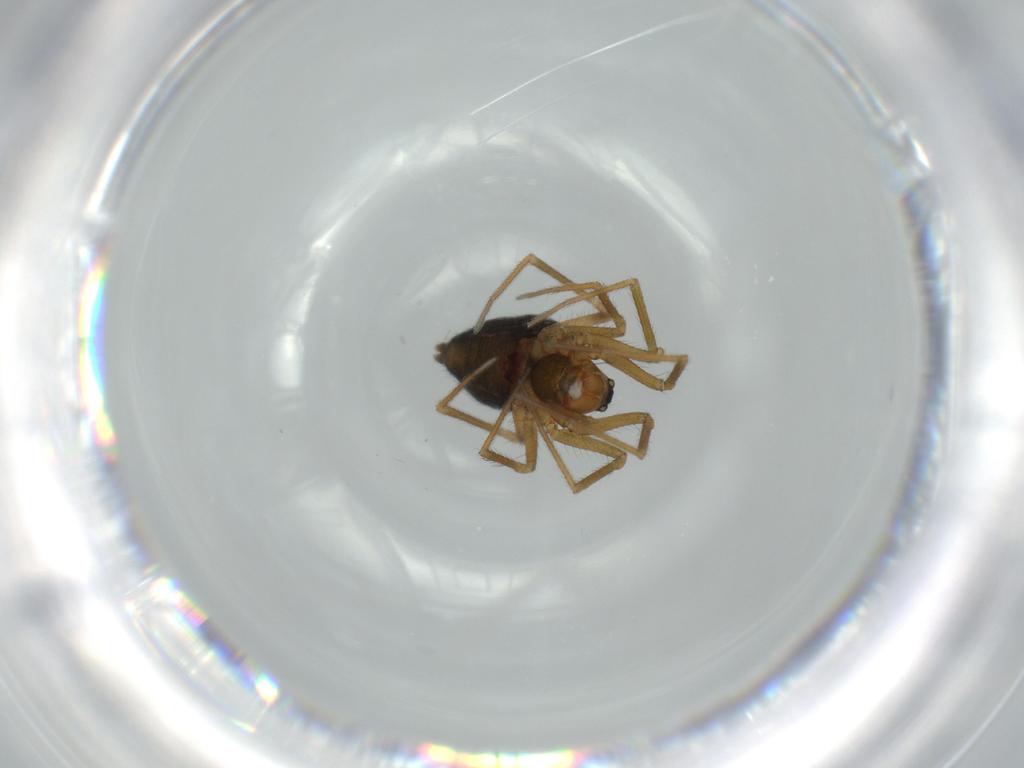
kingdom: Animalia
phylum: Arthropoda
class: Arachnida
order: Araneae
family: Linyphiidae
